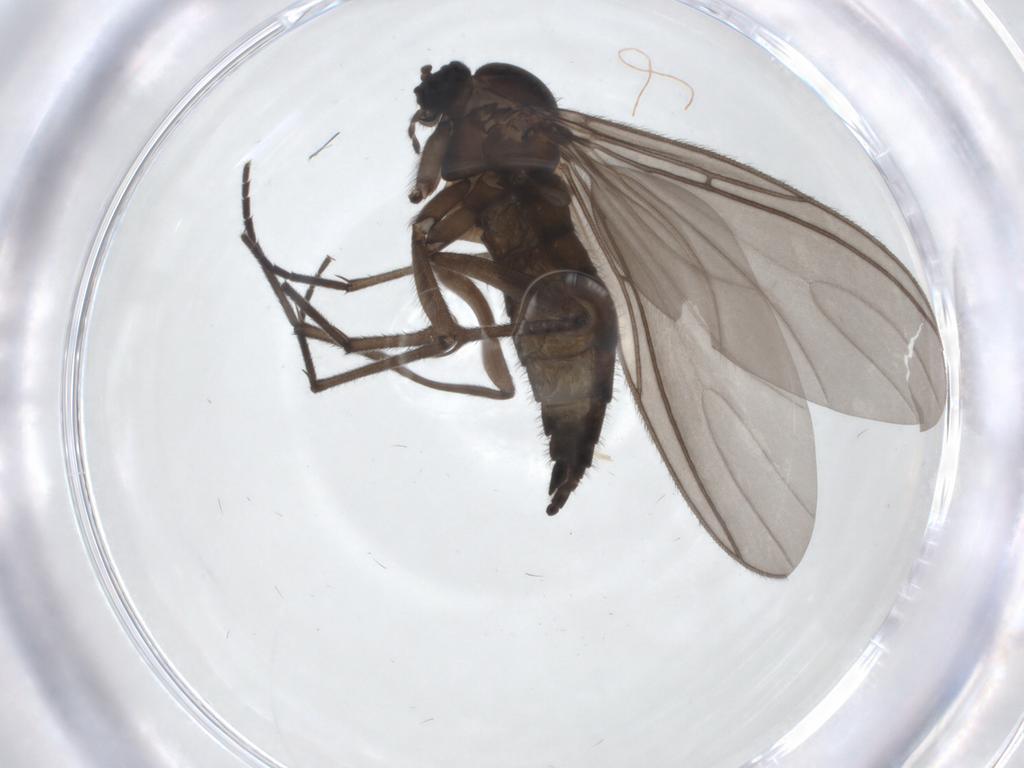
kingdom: Animalia
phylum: Arthropoda
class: Insecta
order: Diptera
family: Sciaridae
